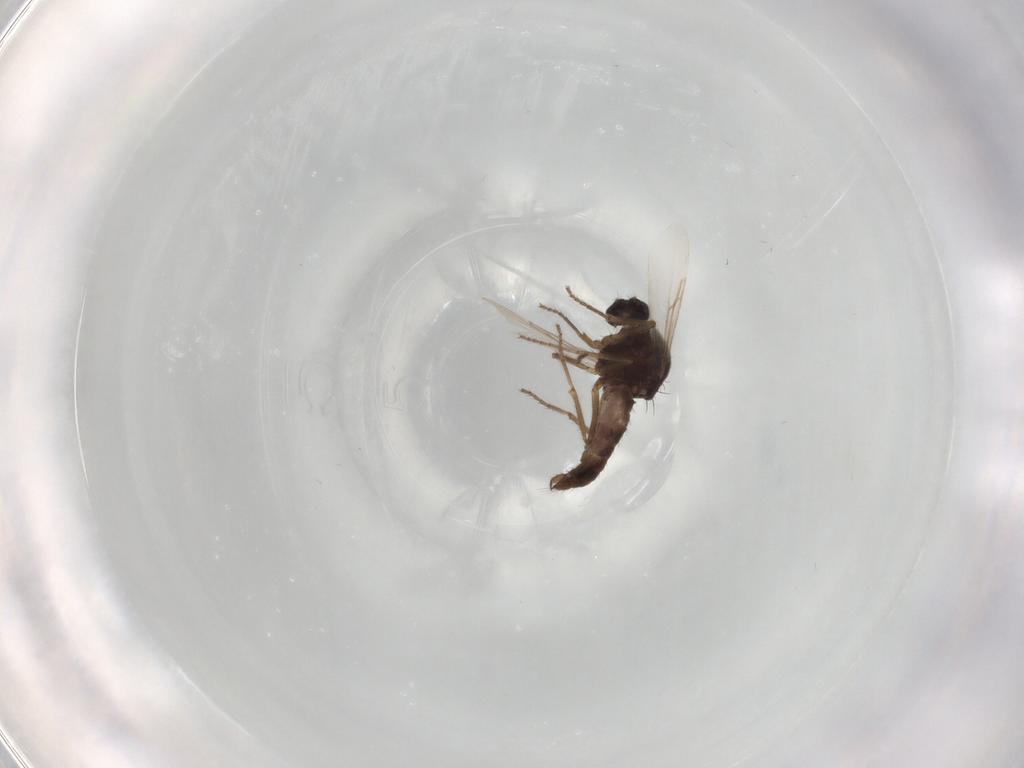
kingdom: Animalia
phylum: Arthropoda
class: Insecta
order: Diptera
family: Ceratopogonidae
